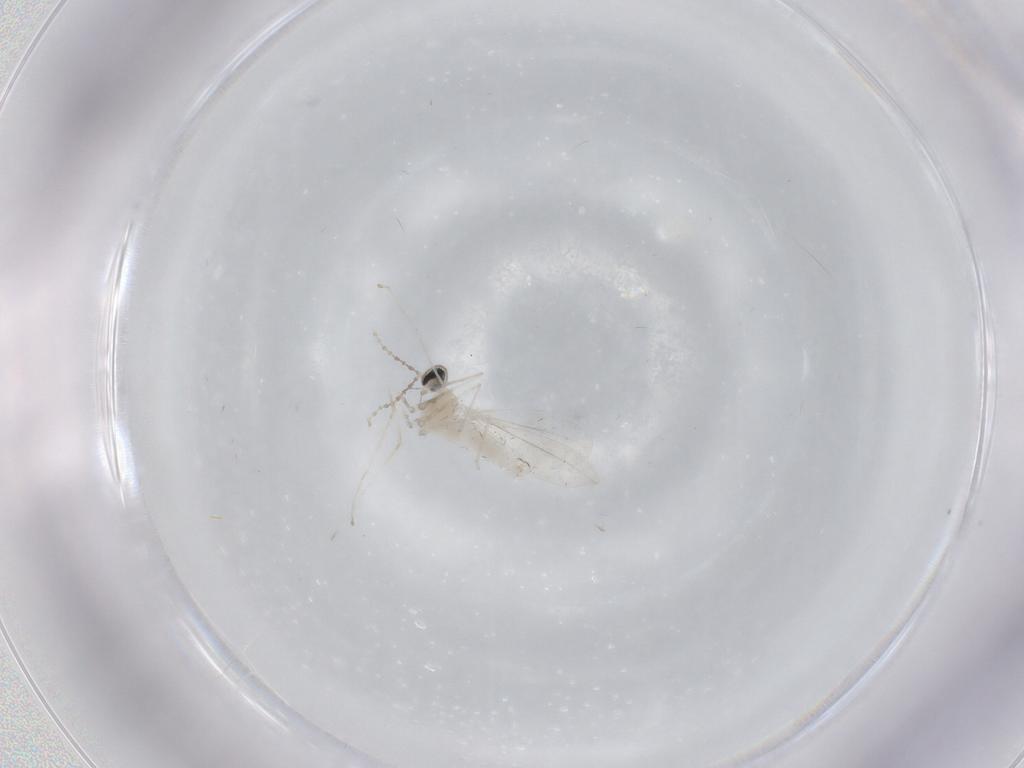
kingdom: Animalia
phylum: Arthropoda
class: Insecta
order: Diptera
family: Cecidomyiidae
